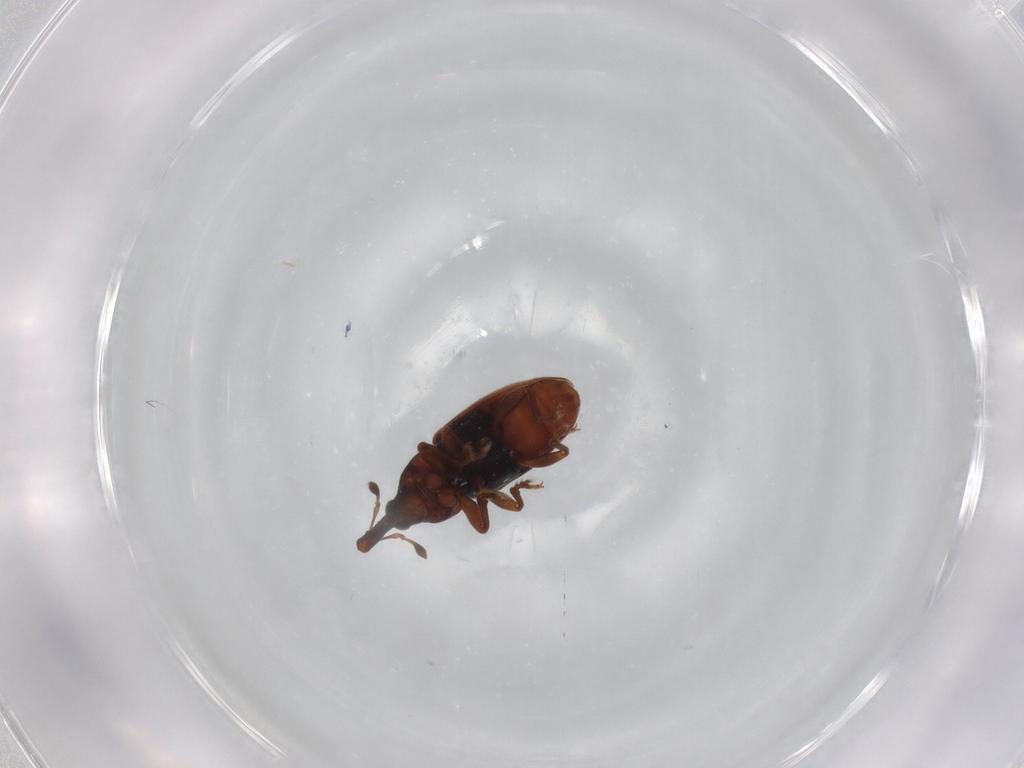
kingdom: Animalia
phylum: Arthropoda
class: Insecta
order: Coleoptera
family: Curculionidae
